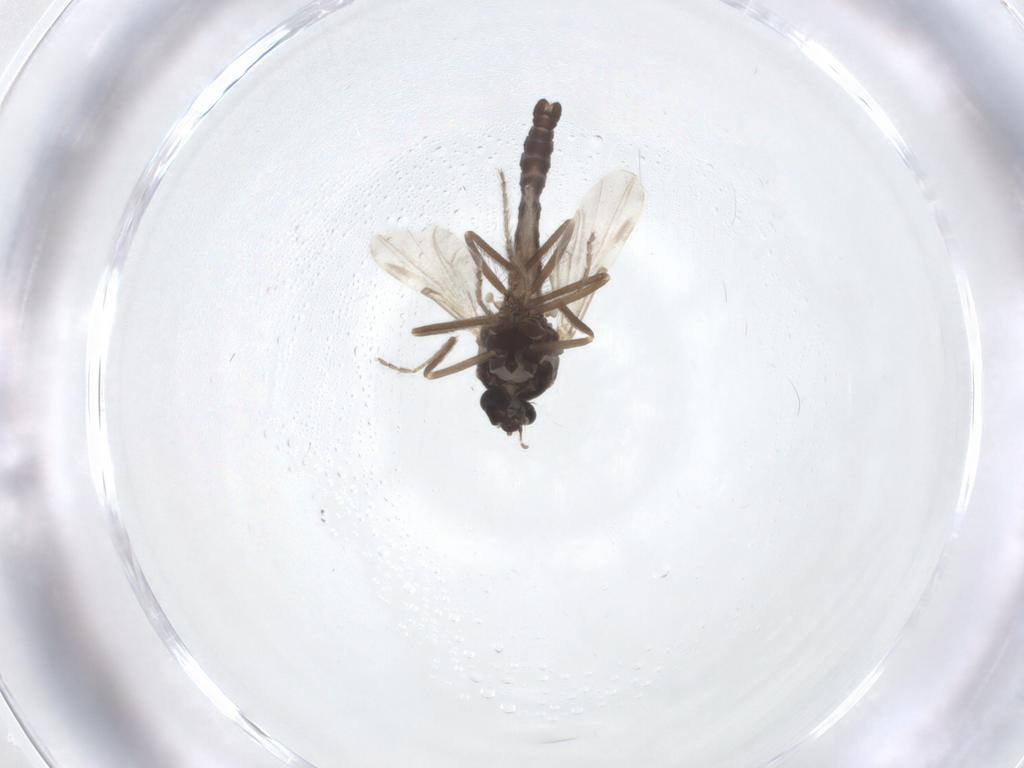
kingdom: Animalia
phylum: Arthropoda
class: Insecta
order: Diptera
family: Ceratopogonidae
